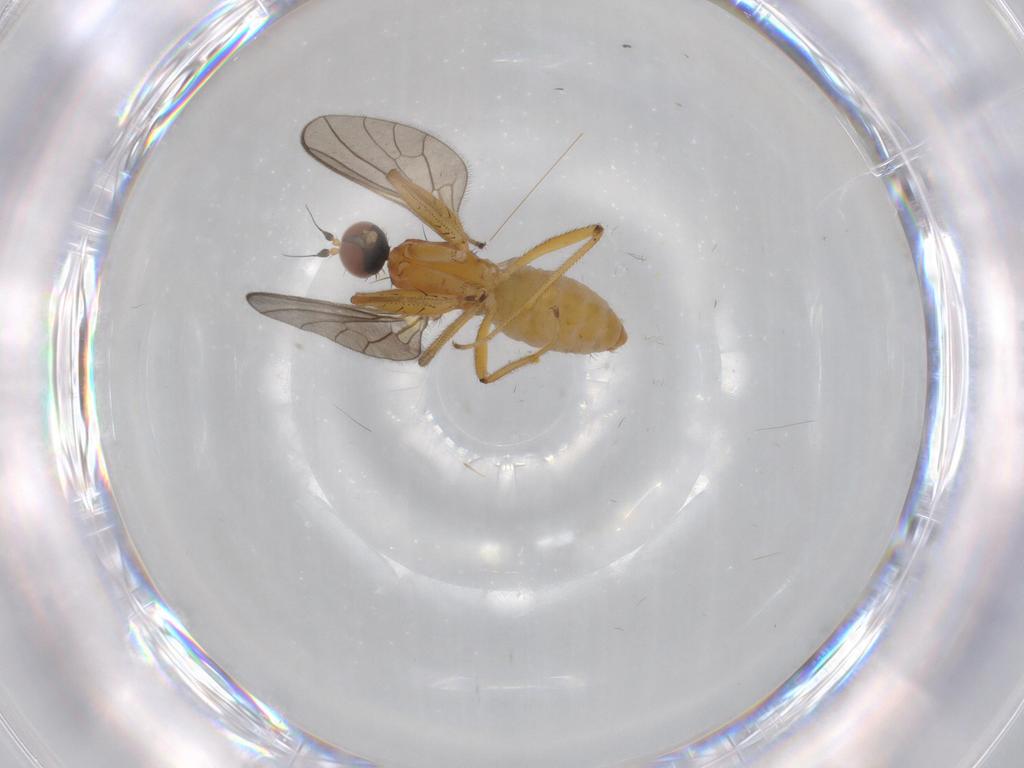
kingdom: Animalia
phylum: Arthropoda
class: Insecta
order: Diptera
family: Empididae
